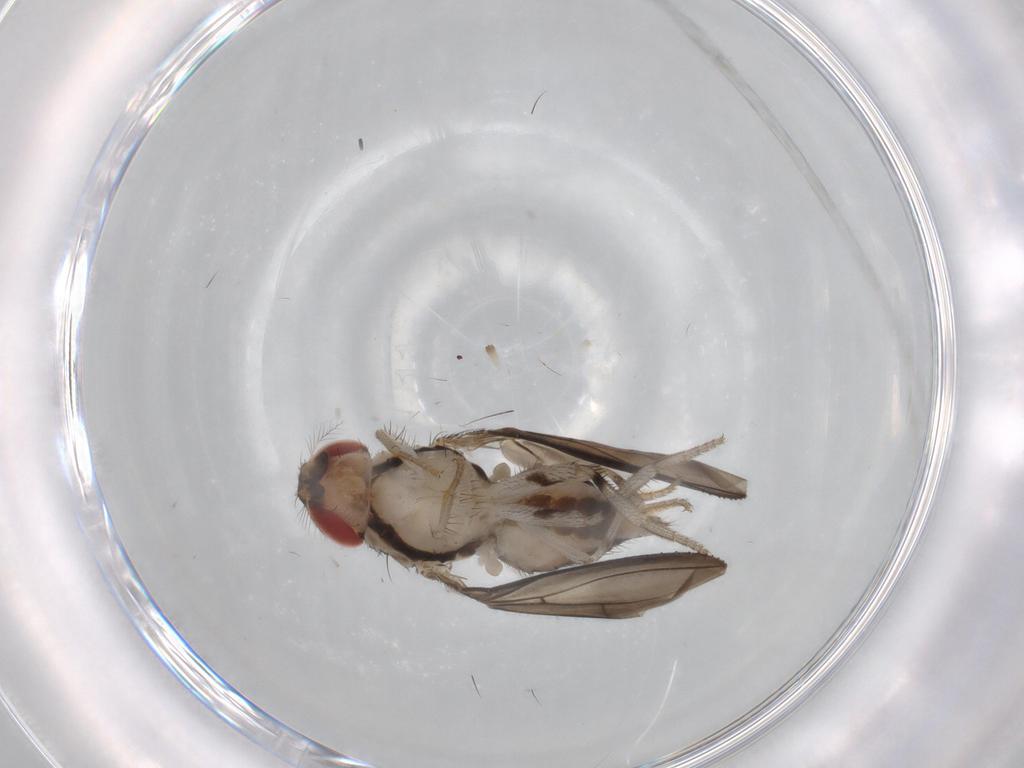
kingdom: Animalia
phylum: Arthropoda
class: Insecta
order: Diptera
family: Drosophilidae
